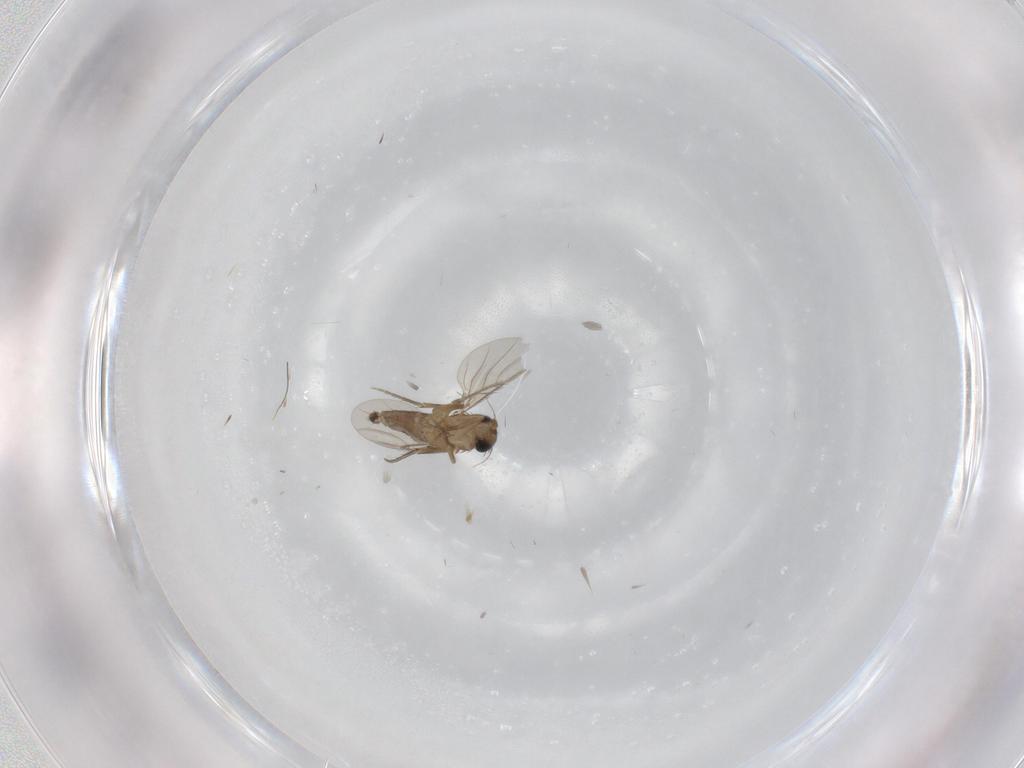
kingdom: Animalia
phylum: Arthropoda
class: Insecta
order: Diptera
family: Phoridae
